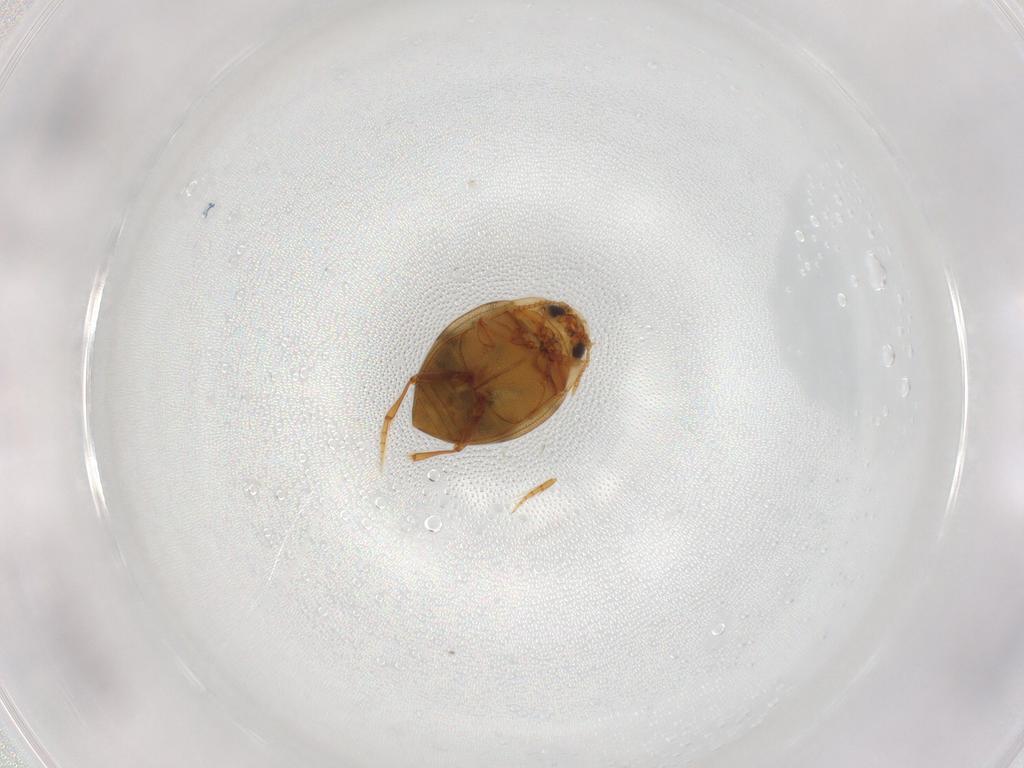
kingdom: Animalia
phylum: Arthropoda
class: Insecta
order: Coleoptera
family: Dytiscidae
